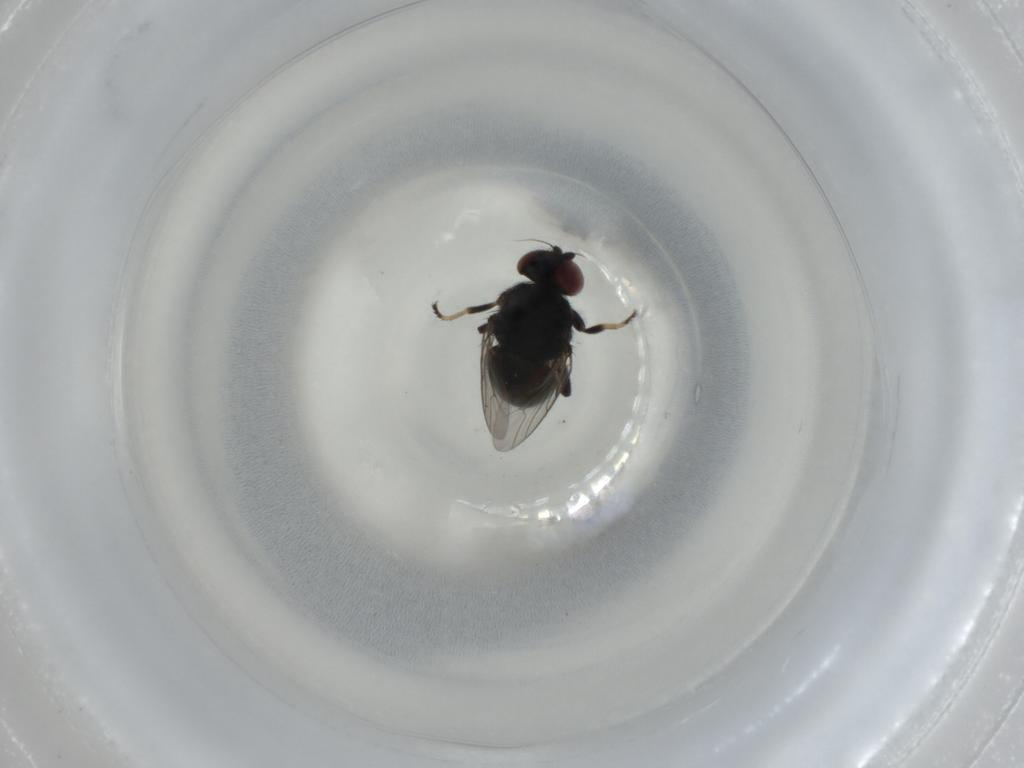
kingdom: Animalia
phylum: Arthropoda
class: Insecta
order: Diptera
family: Chloropidae
